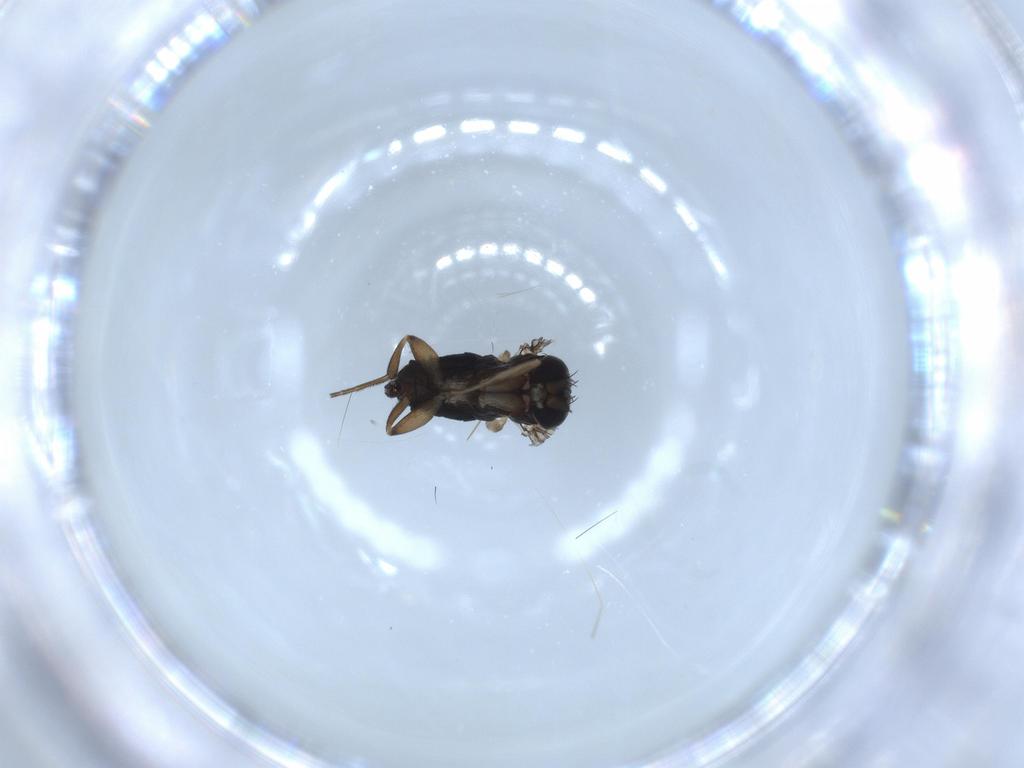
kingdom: Animalia
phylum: Arthropoda
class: Insecta
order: Diptera
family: Phoridae
